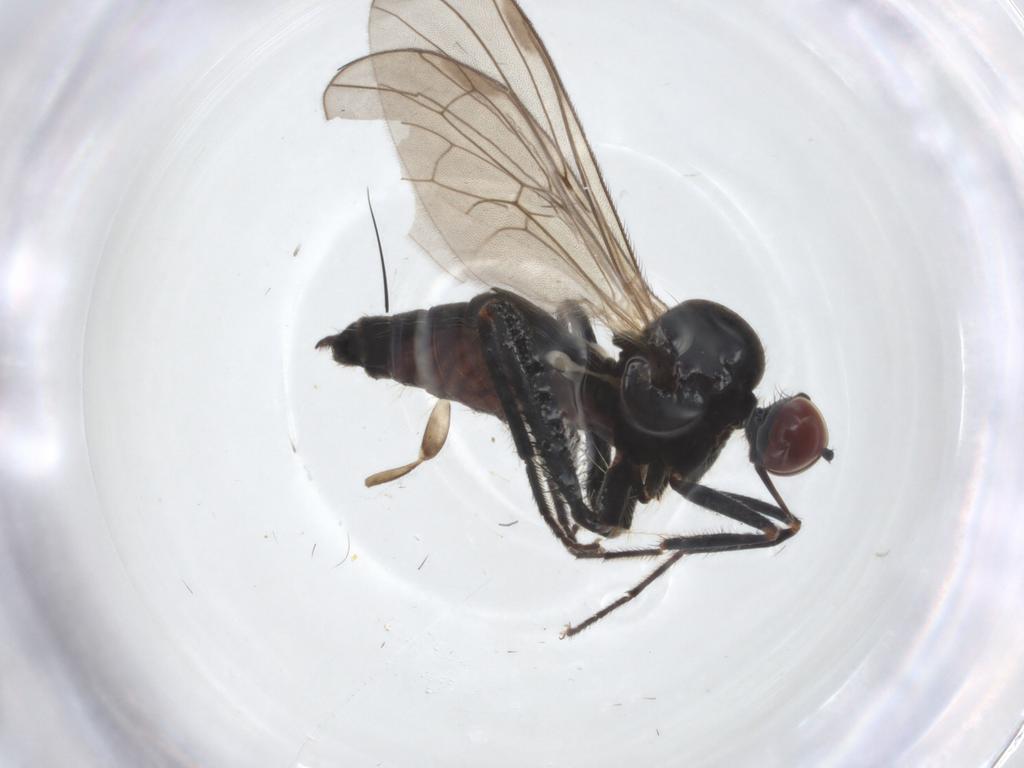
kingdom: Animalia
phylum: Arthropoda
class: Insecta
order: Diptera
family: Hybotidae
